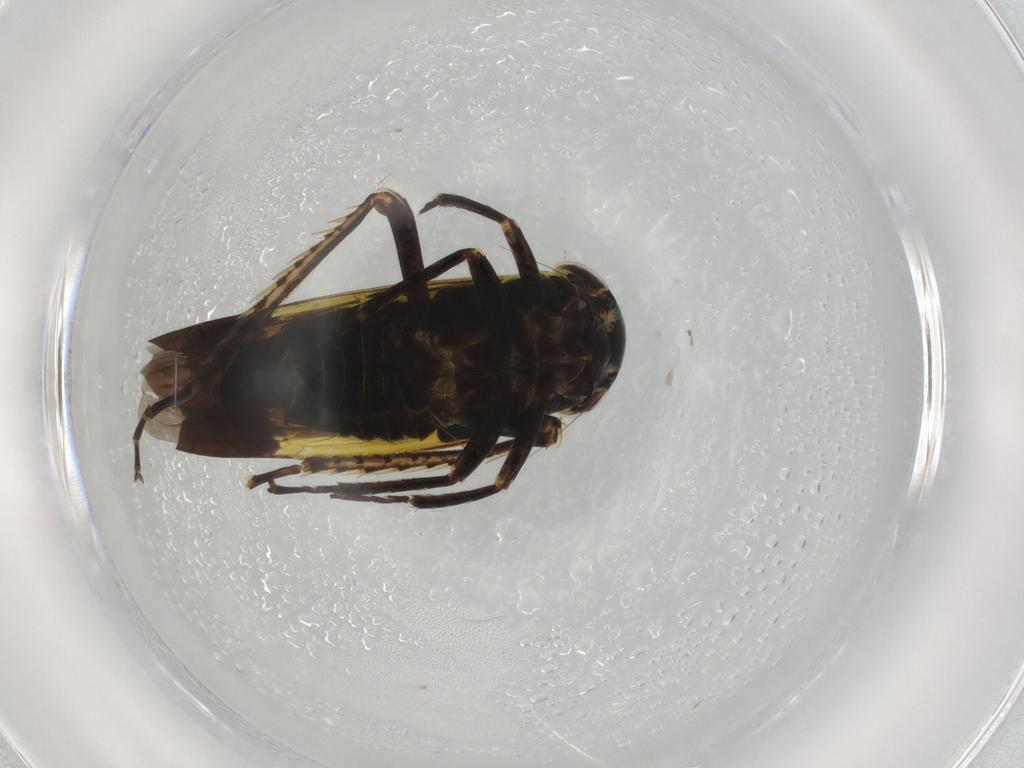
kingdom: Animalia
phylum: Arthropoda
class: Insecta
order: Hemiptera
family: Cicadellidae
